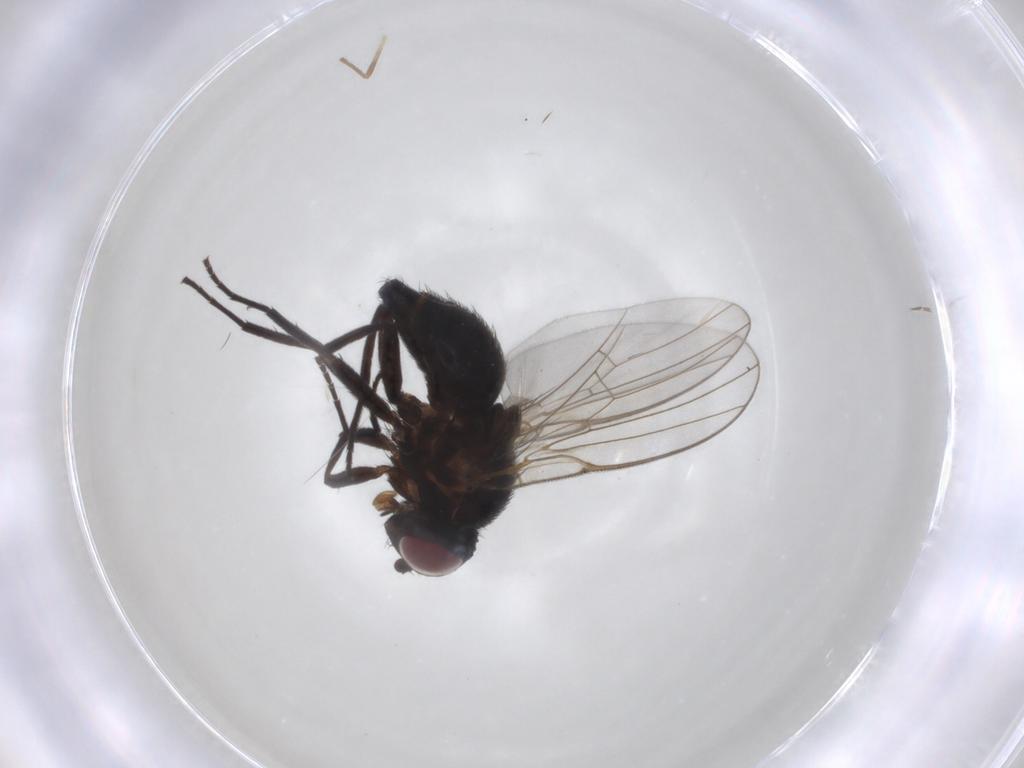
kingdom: Animalia
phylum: Arthropoda
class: Insecta
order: Diptera
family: Agromyzidae
